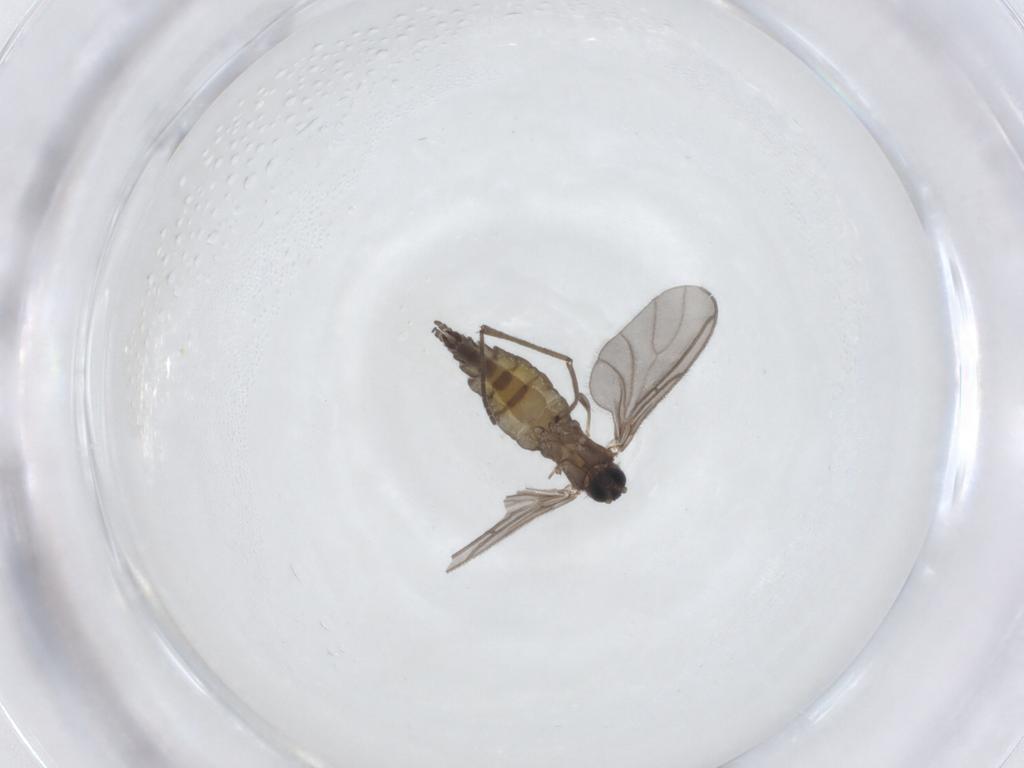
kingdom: Animalia
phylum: Arthropoda
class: Insecta
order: Diptera
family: Sciaridae
